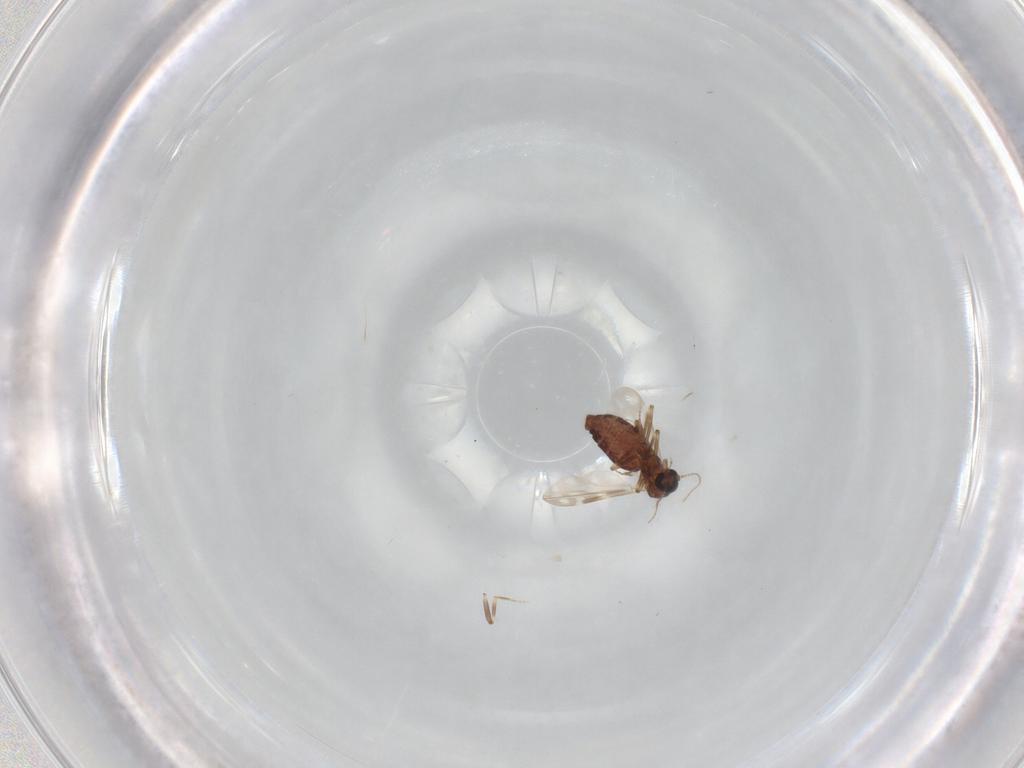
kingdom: Animalia
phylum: Arthropoda
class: Insecta
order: Diptera
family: Ceratopogonidae
